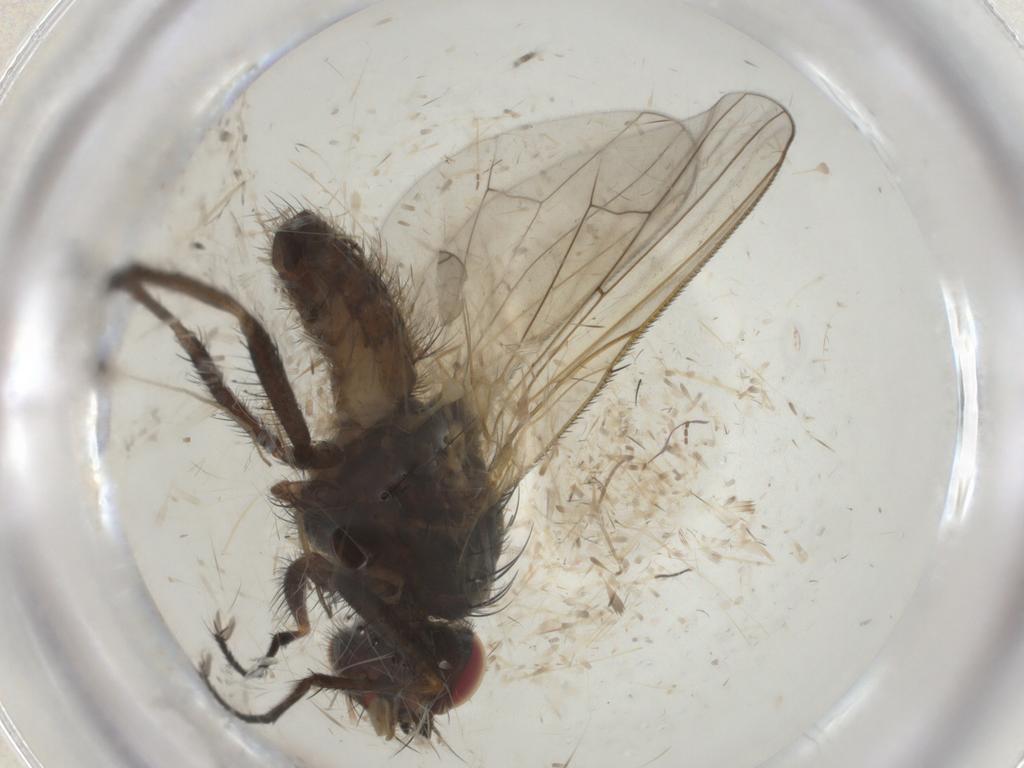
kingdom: Animalia
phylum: Arthropoda
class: Insecta
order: Diptera
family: Anthomyiidae
